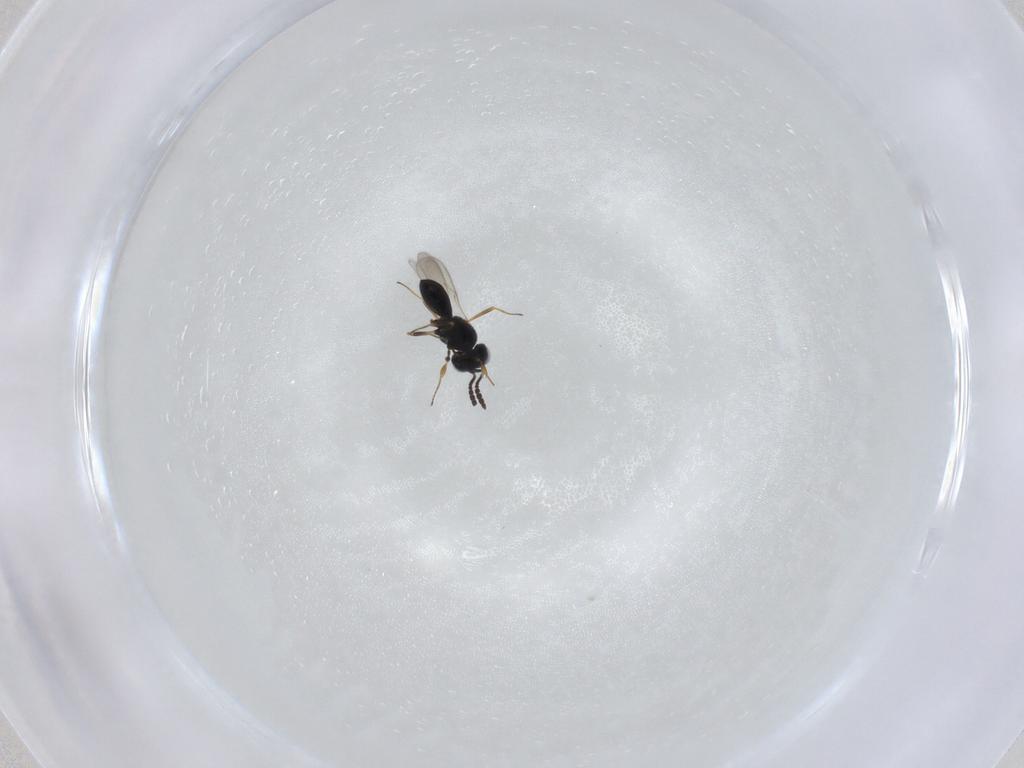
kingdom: Animalia
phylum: Arthropoda
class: Insecta
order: Hymenoptera
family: Scelionidae
